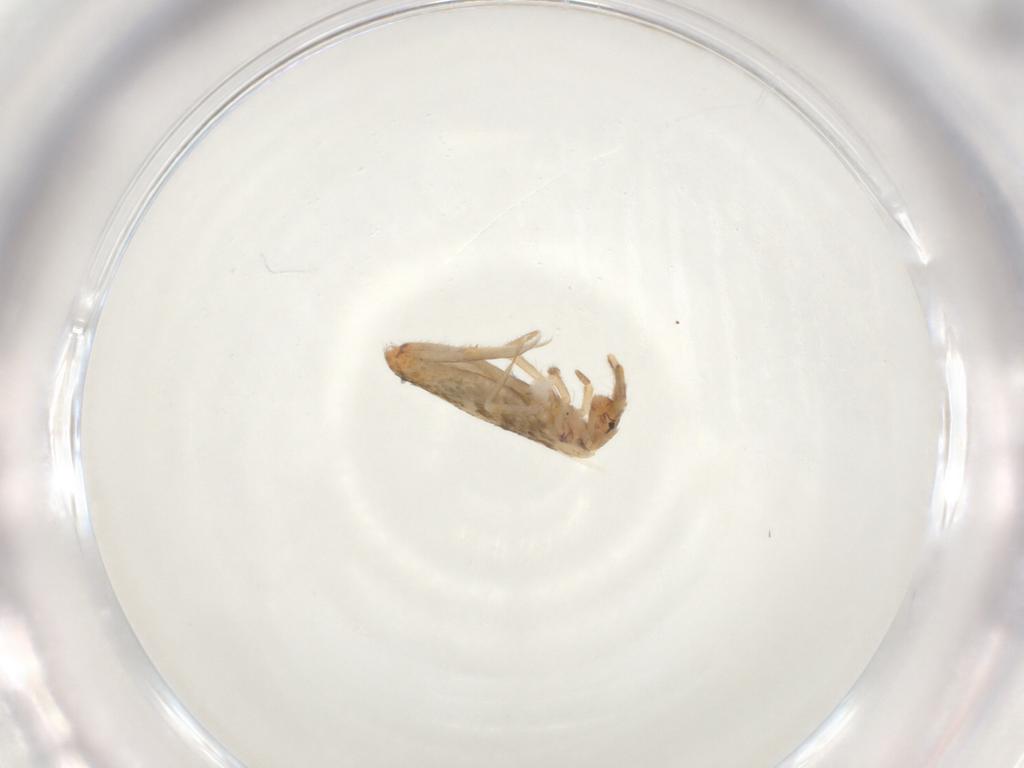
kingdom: Animalia
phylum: Arthropoda
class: Collembola
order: Entomobryomorpha
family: Entomobryidae
